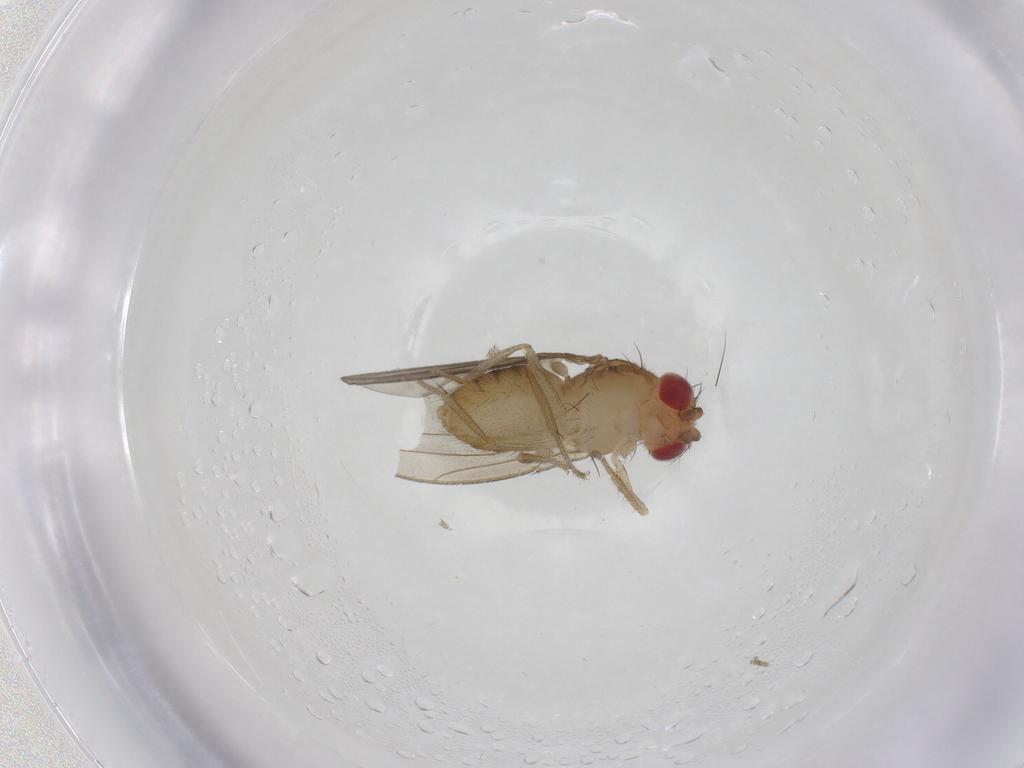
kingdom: Animalia
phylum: Arthropoda
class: Insecta
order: Diptera
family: Drosophilidae
